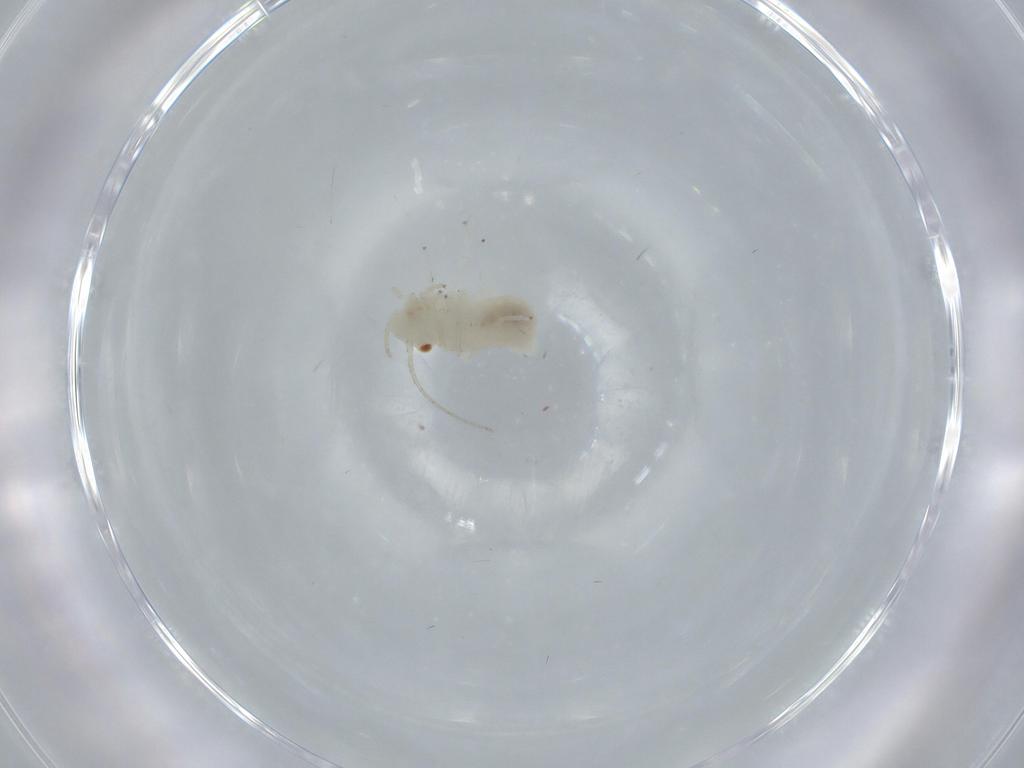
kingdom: Animalia
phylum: Arthropoda
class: Insecta
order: Psocodea
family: Caeciliusidae
